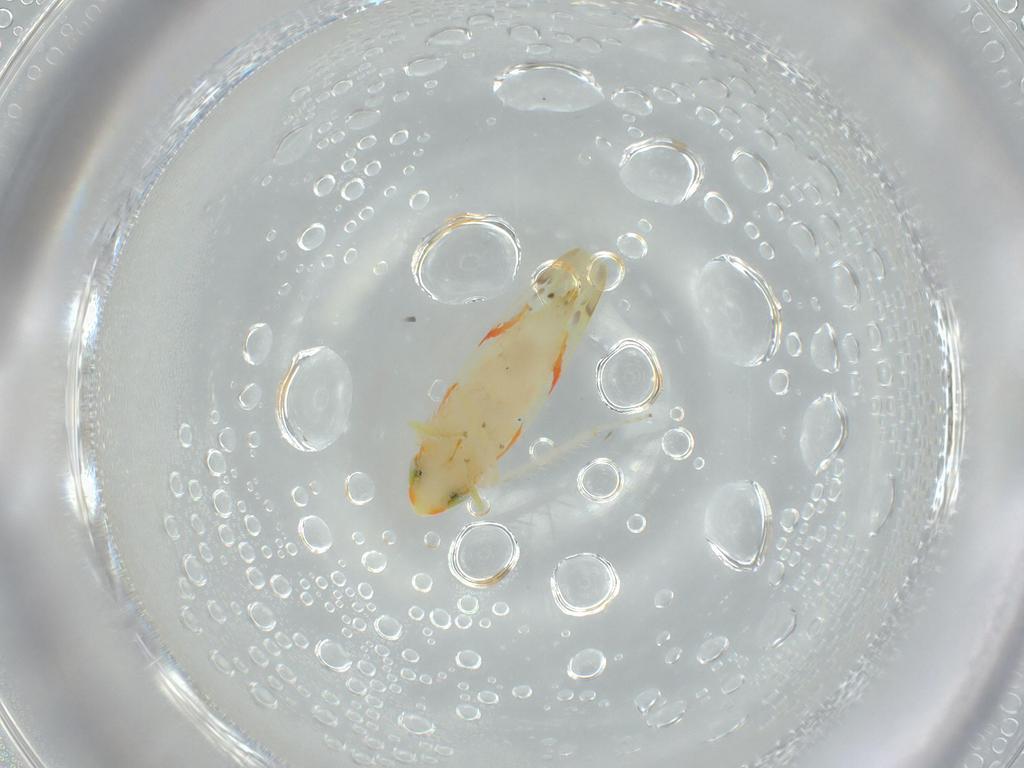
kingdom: Animalia
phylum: Arthropoda
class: Insecta
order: Hemiptera
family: Cicadellidae
